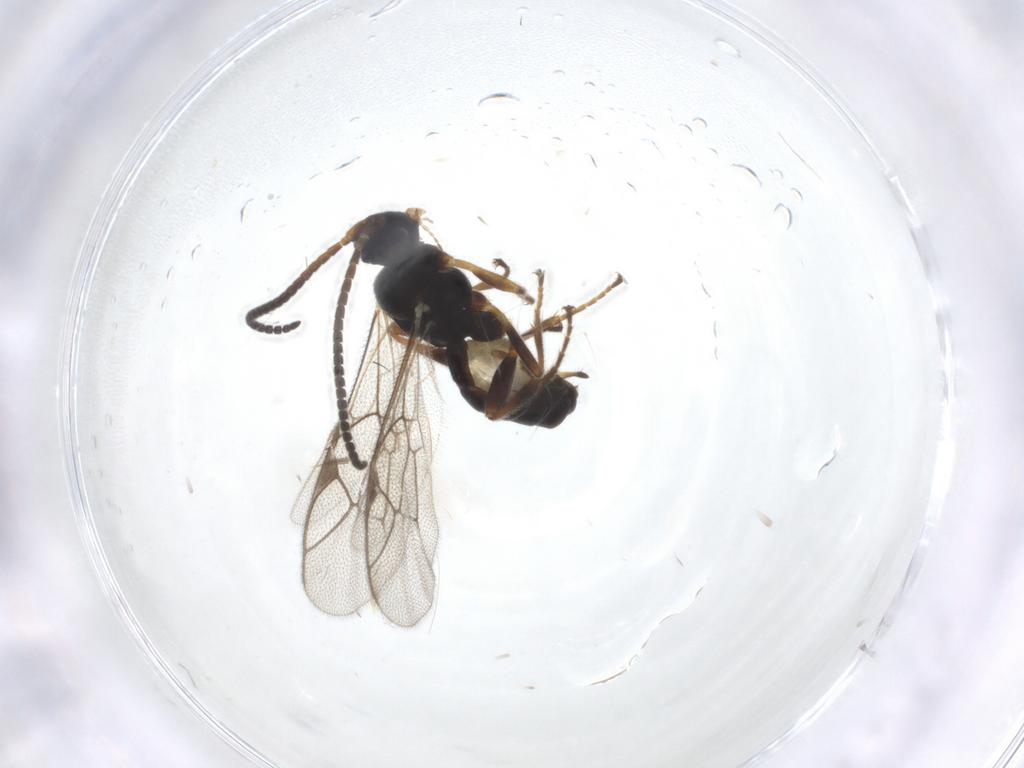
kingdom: Animalia
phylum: Arthropoda
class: Insecta
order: Hymenoptera
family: Ichneumonidae
